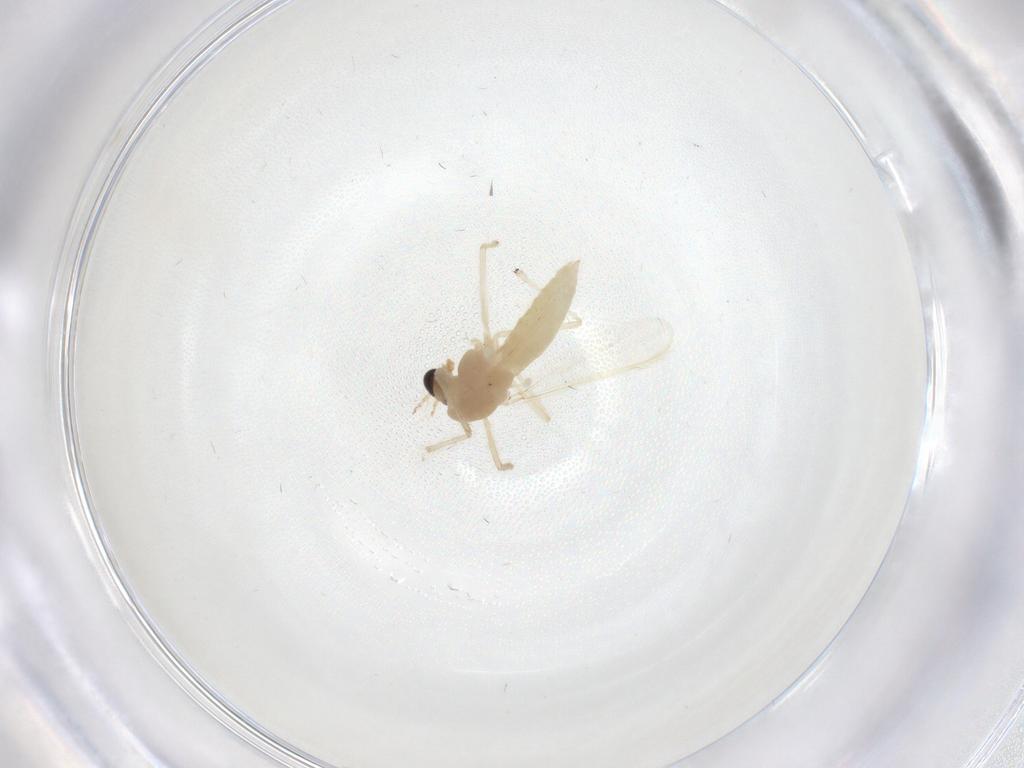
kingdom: Animalia
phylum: Arthropoda
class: Insecta
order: Diptera
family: Chironomidae
